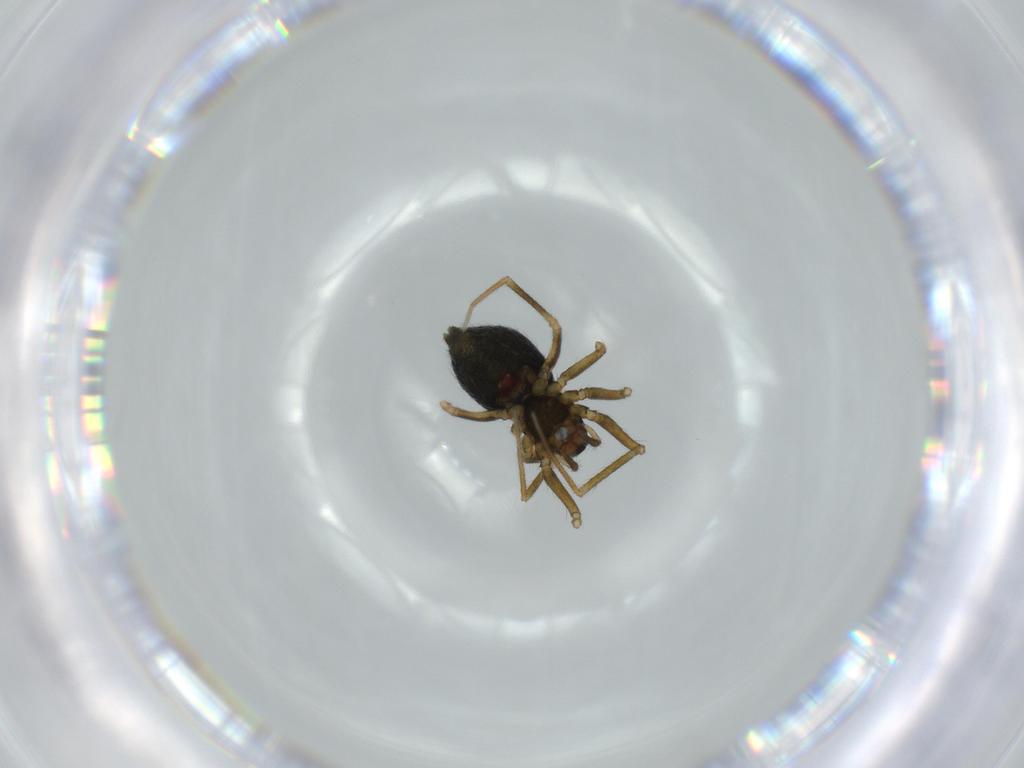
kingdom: Animalia
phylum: Arthropoda
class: Arachnida
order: Araneae
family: Linyphiidae
